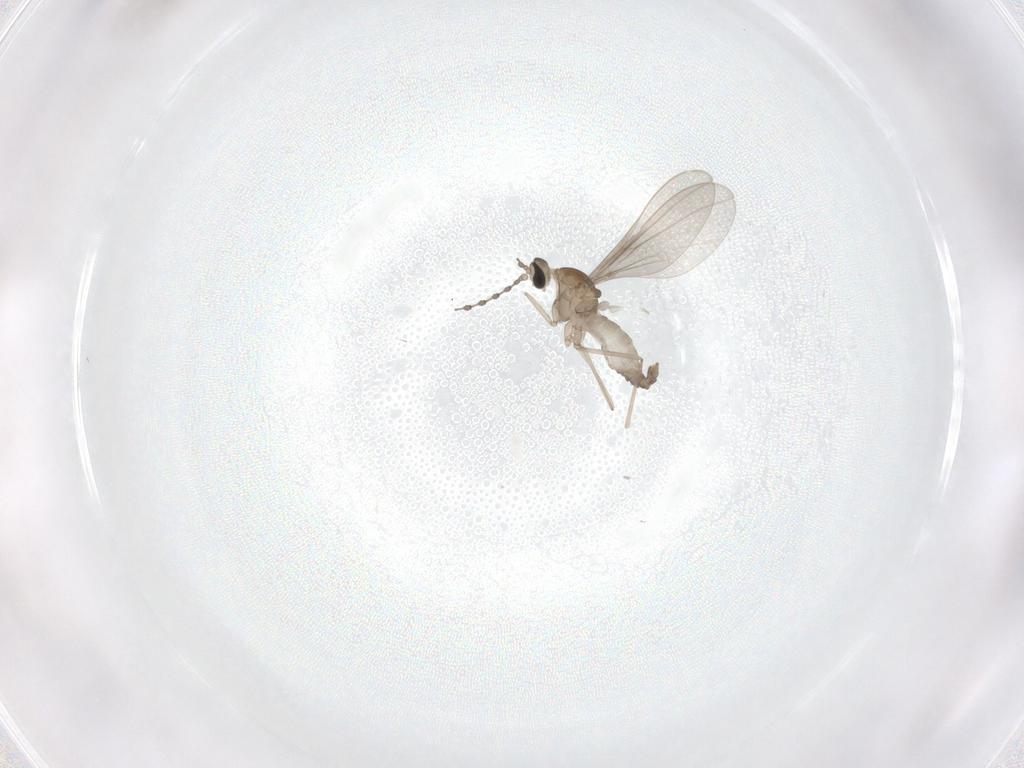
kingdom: Animalia
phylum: Arthropoda
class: Insecta
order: Diptera
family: Cecidomyiidae
